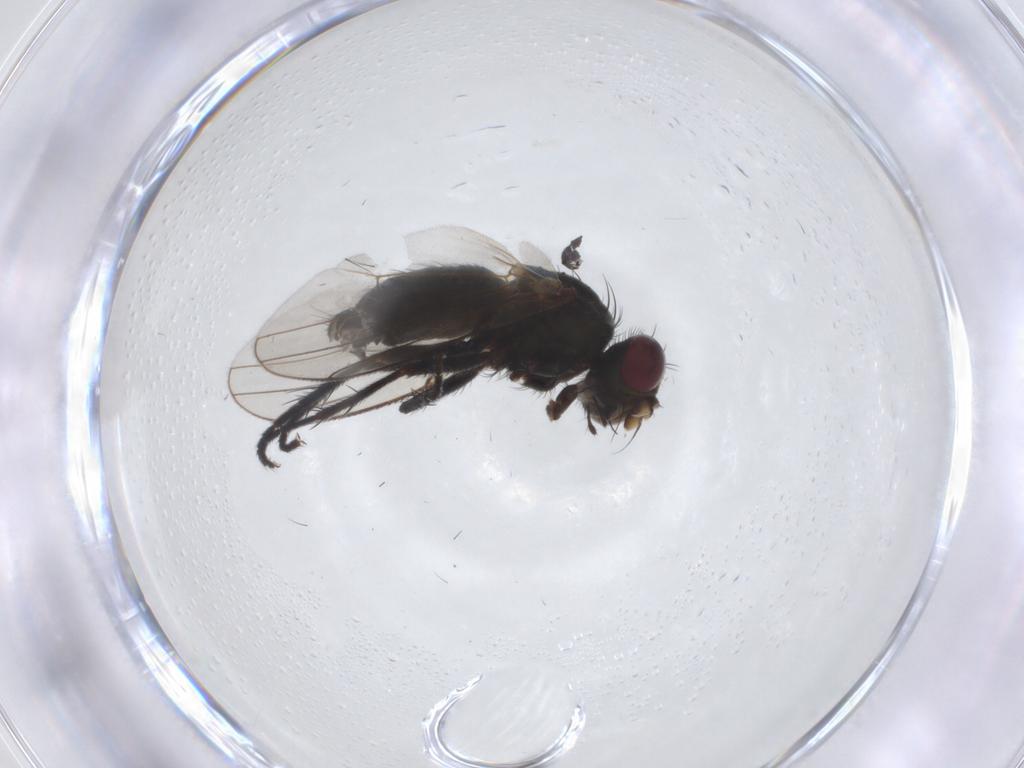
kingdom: Animalia
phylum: Arthropoda
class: Insecta
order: Diptera
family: Muscidae
